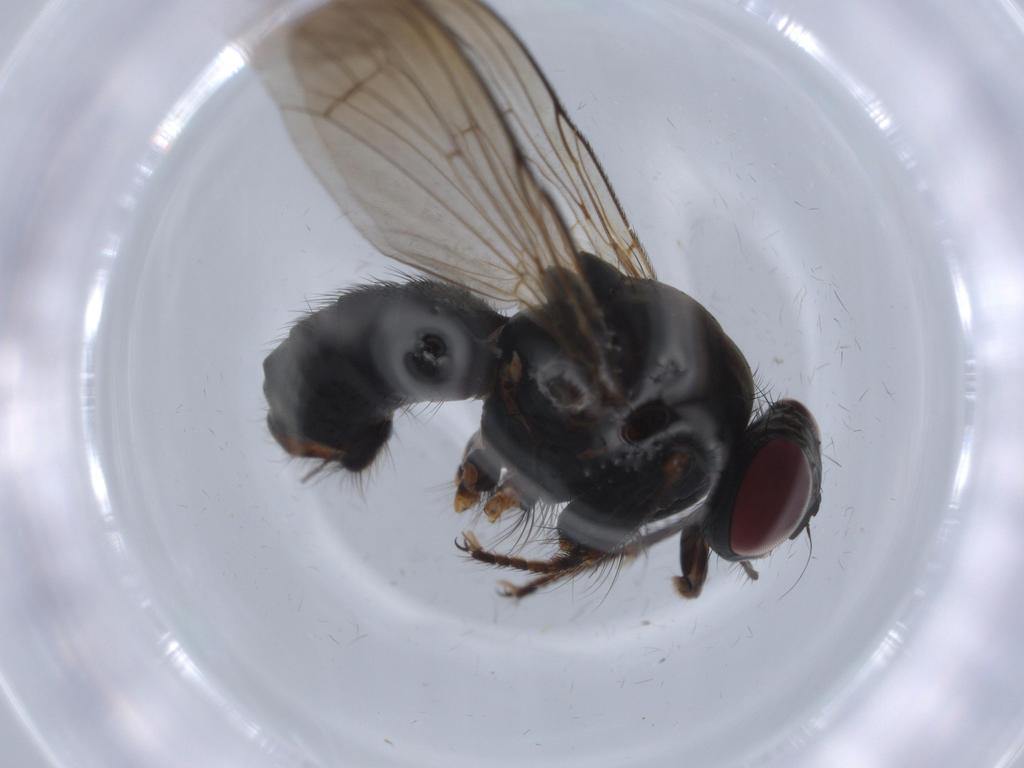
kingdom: Animalia
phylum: Arthropoda
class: Insecta
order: Diptera
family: Muscidae
